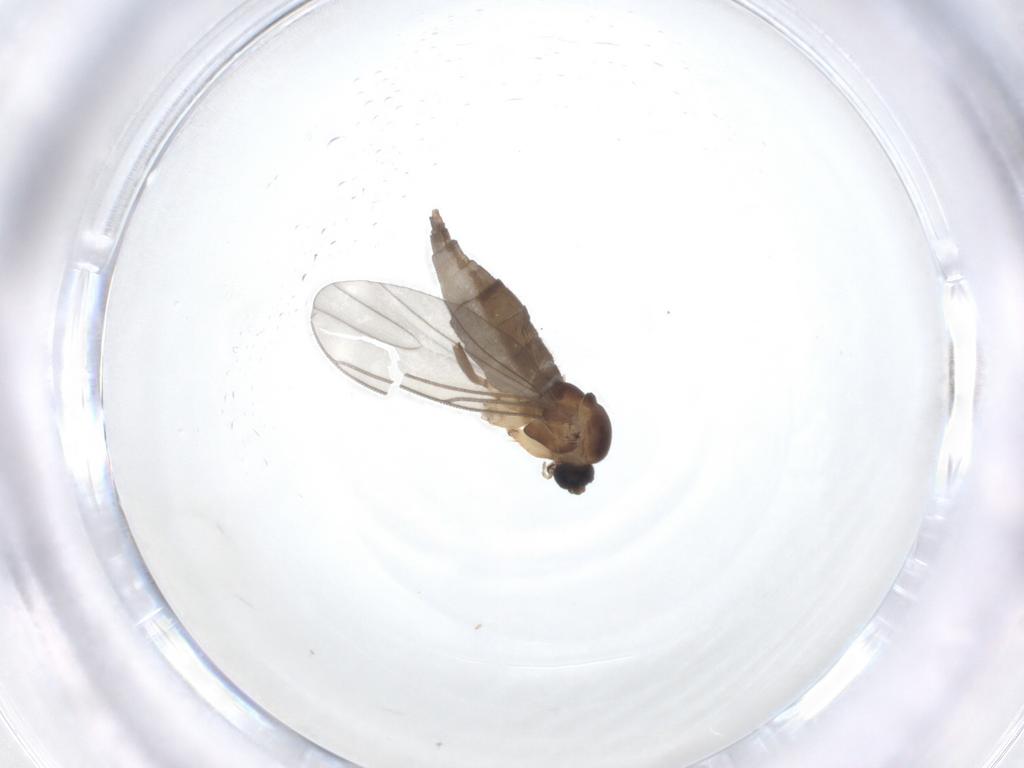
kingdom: Animalia
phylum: Arthropoda
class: Insecta
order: Diptera
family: Sciaridae
